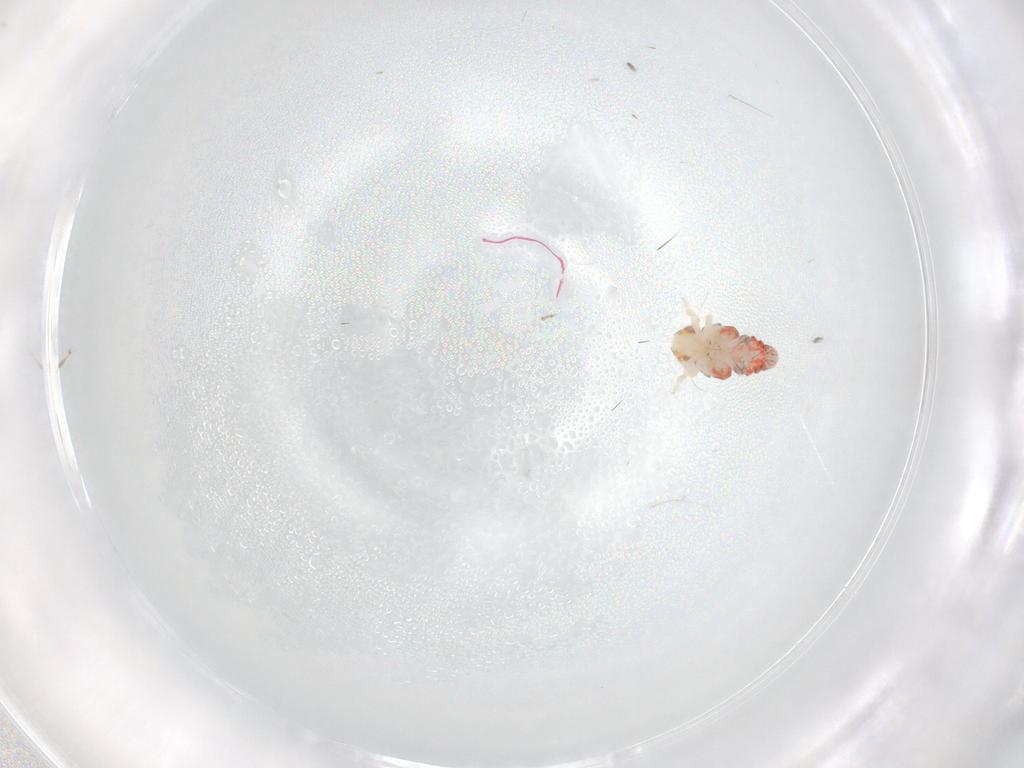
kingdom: Animalia
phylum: Arthropoda
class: Insecta
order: Hemiptera
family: Nogodinidae
